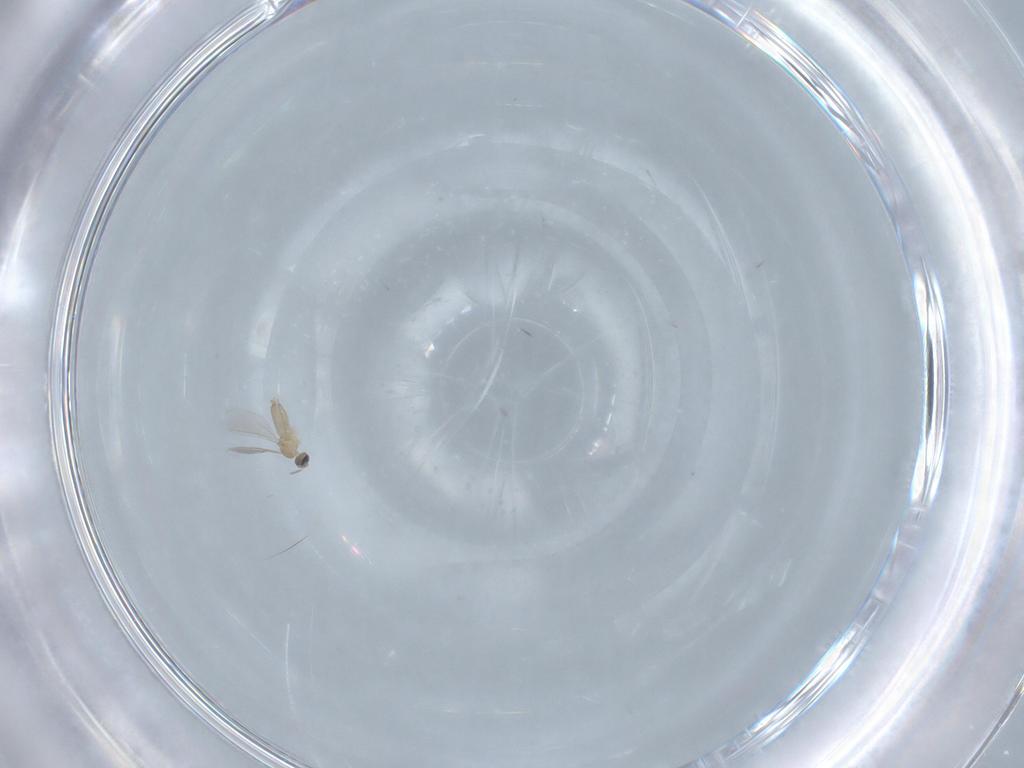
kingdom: Animalia
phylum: Arthropoda
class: Insecta
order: Diptera
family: Cecidomyiidae
